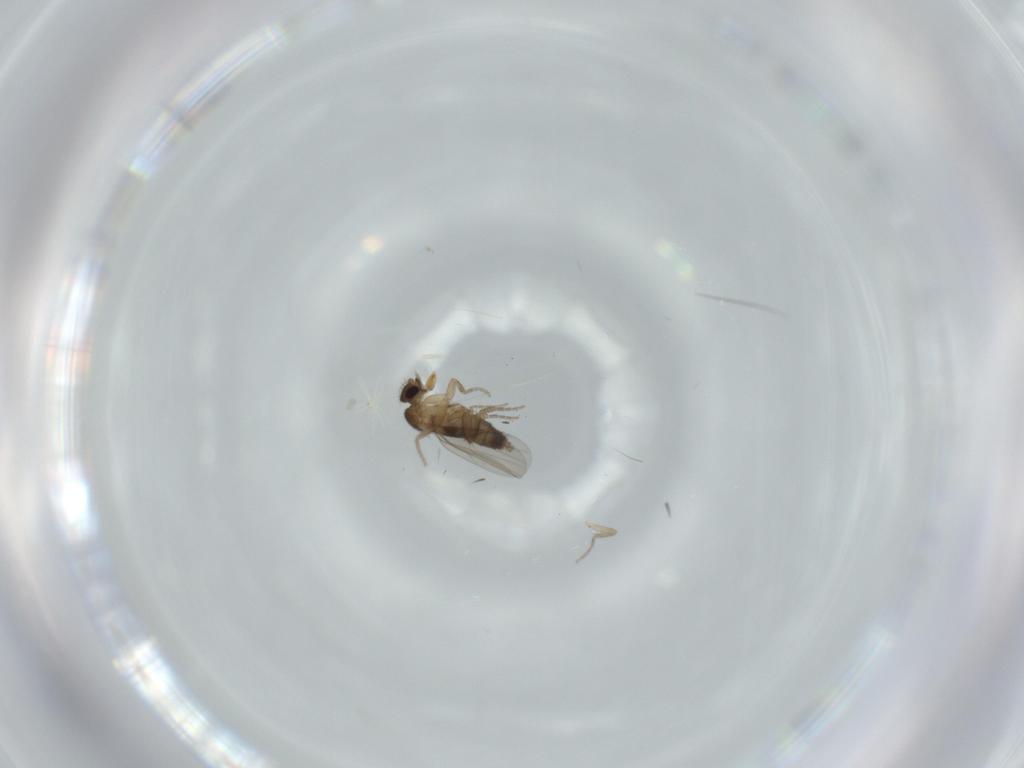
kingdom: Animalia
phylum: Arthropoda
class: Insecta
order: Diptera
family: Phoridae
